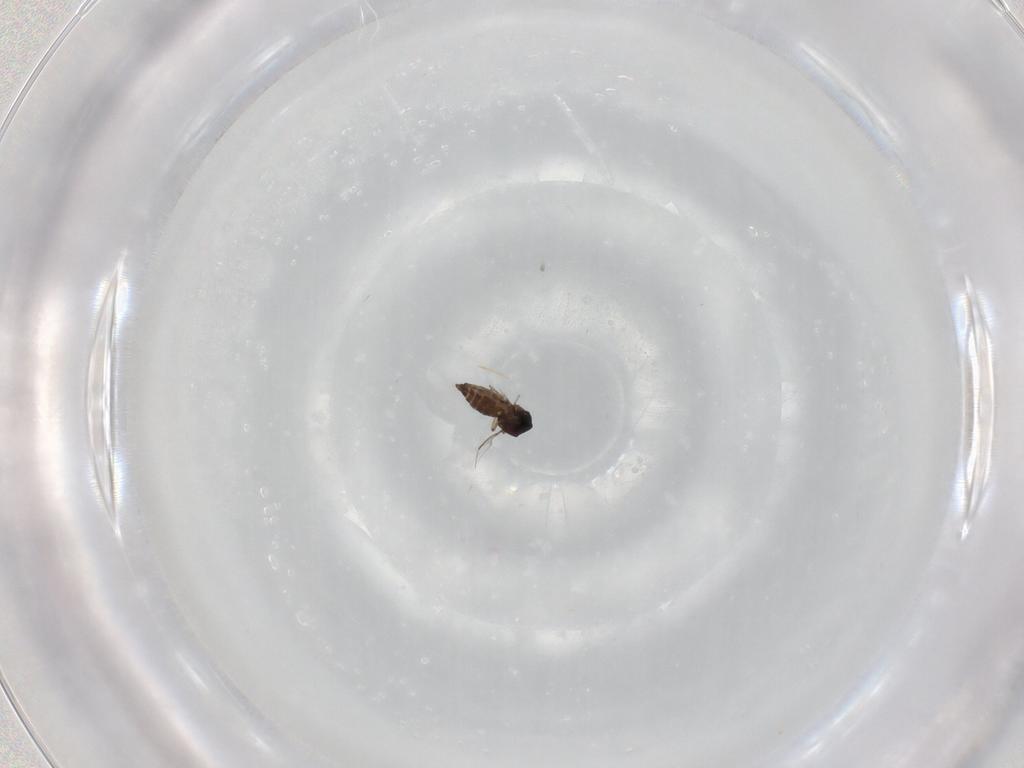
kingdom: Animalia
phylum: Arthropoda
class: Insecta
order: Diptera
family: Ceratopogonidae
